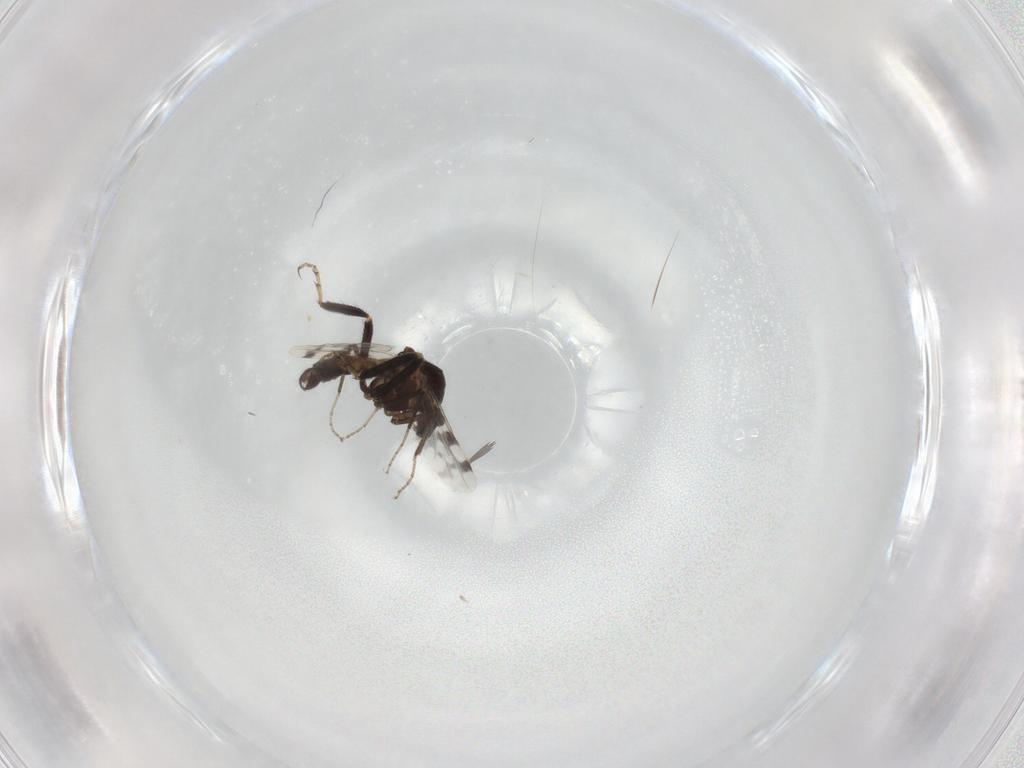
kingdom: Animalia
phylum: Arthropoda
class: Insecta
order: Diptera
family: Ceratopogonidae
